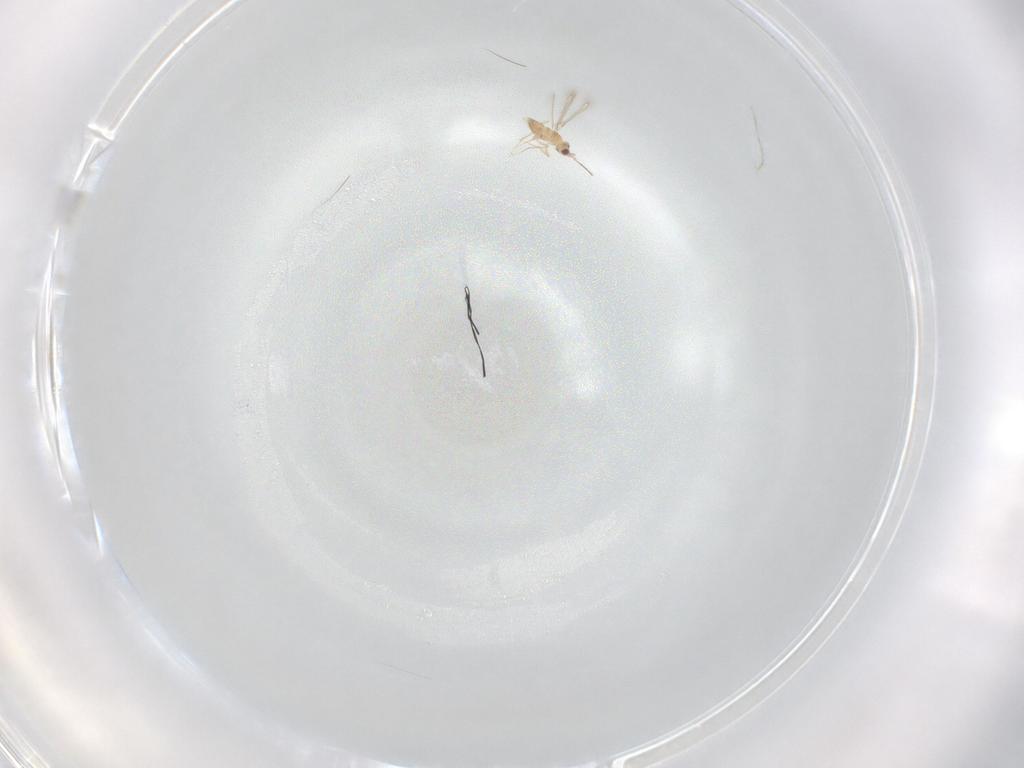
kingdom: Animalia
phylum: Arthropoda
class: Insecta
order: Hymenoptera
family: Mymaridae
